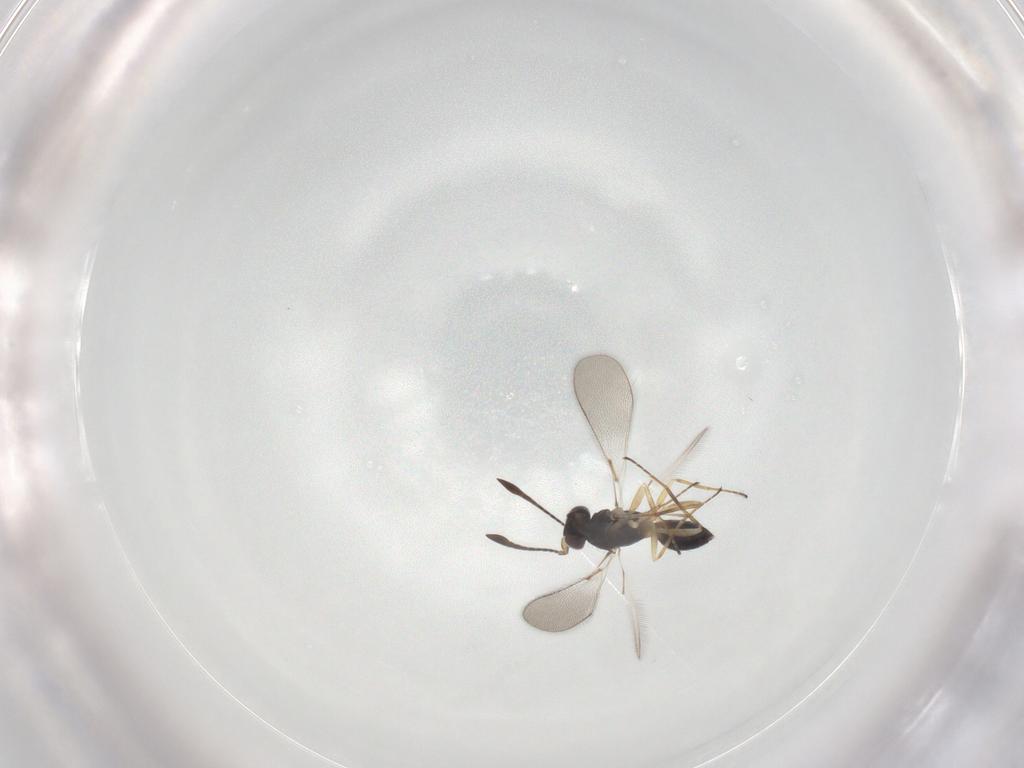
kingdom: Animalia
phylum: Arthropoda
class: Insecta
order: Hymenoptera
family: Mymaridae
